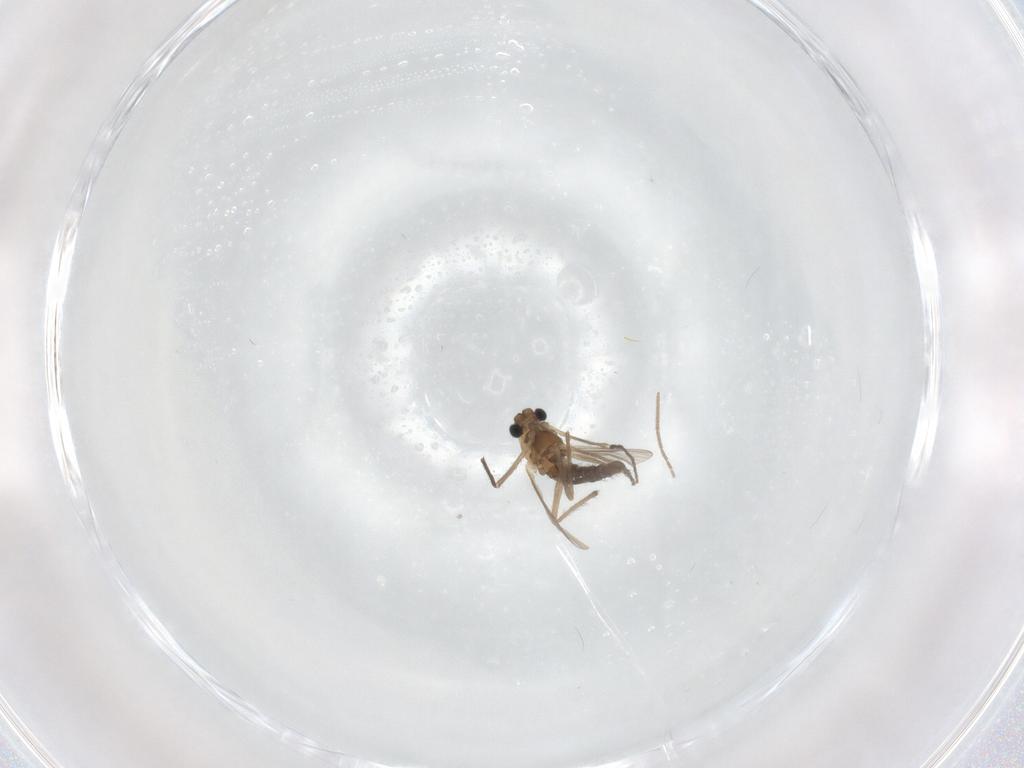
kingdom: Animalia
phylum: Arthropoda
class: Insecta
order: Diptera
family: Chironomidae
